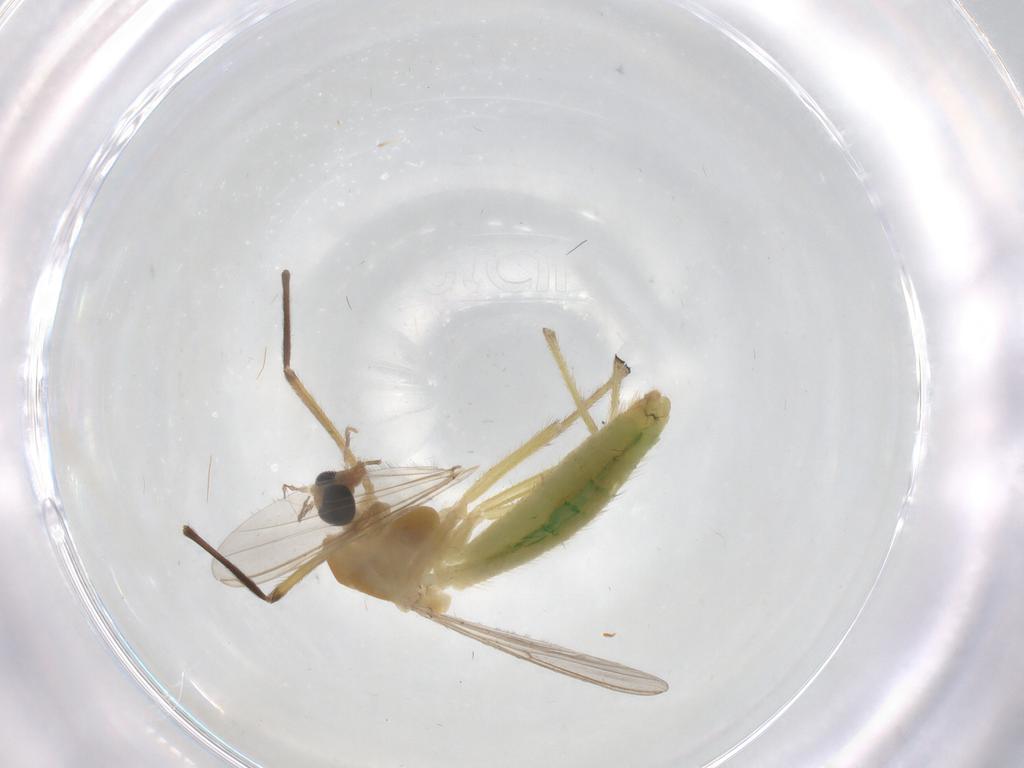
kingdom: Animalia
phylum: Arthropoda
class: Insecta
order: Diptera
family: Chironomidae
